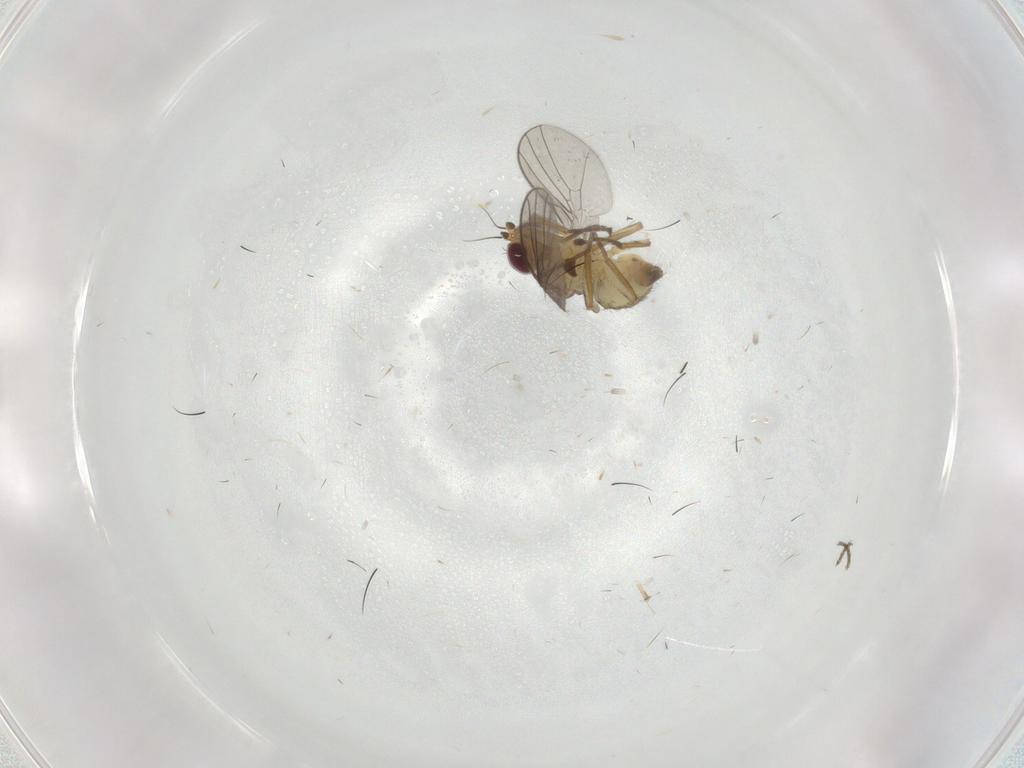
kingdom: Animalia
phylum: Arthropoda
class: Insecta
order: Diptera
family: Agromyzidae
